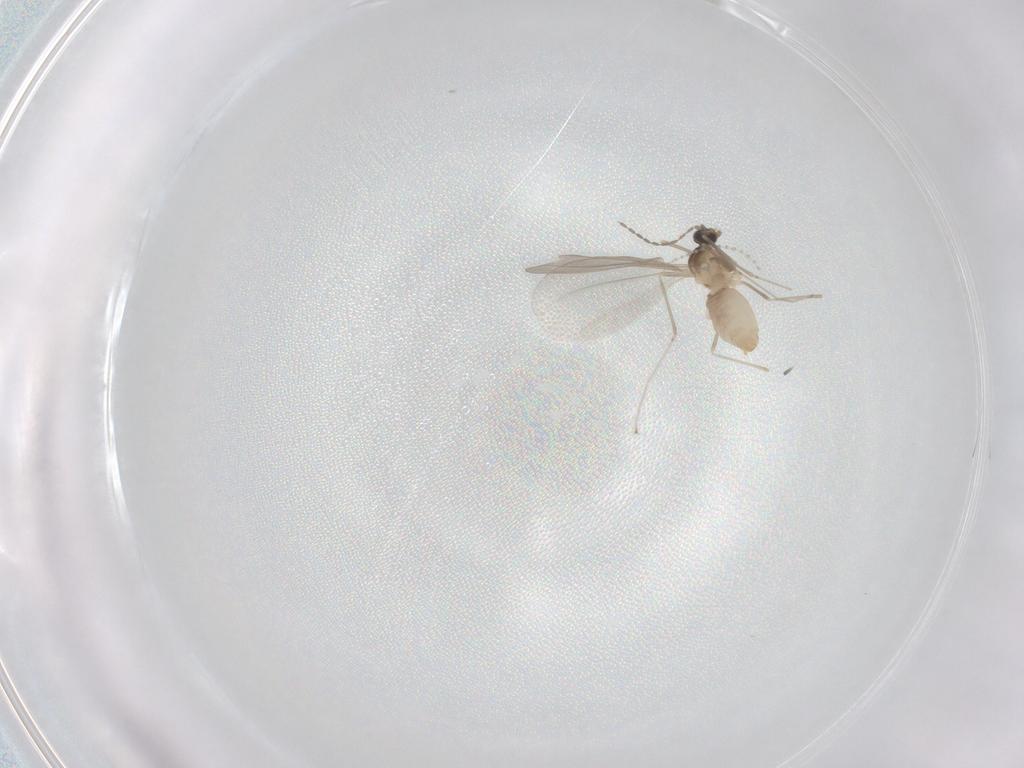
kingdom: Animalia
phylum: Arthropoda
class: Insecta
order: Diptera
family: Cecidomyiidae
